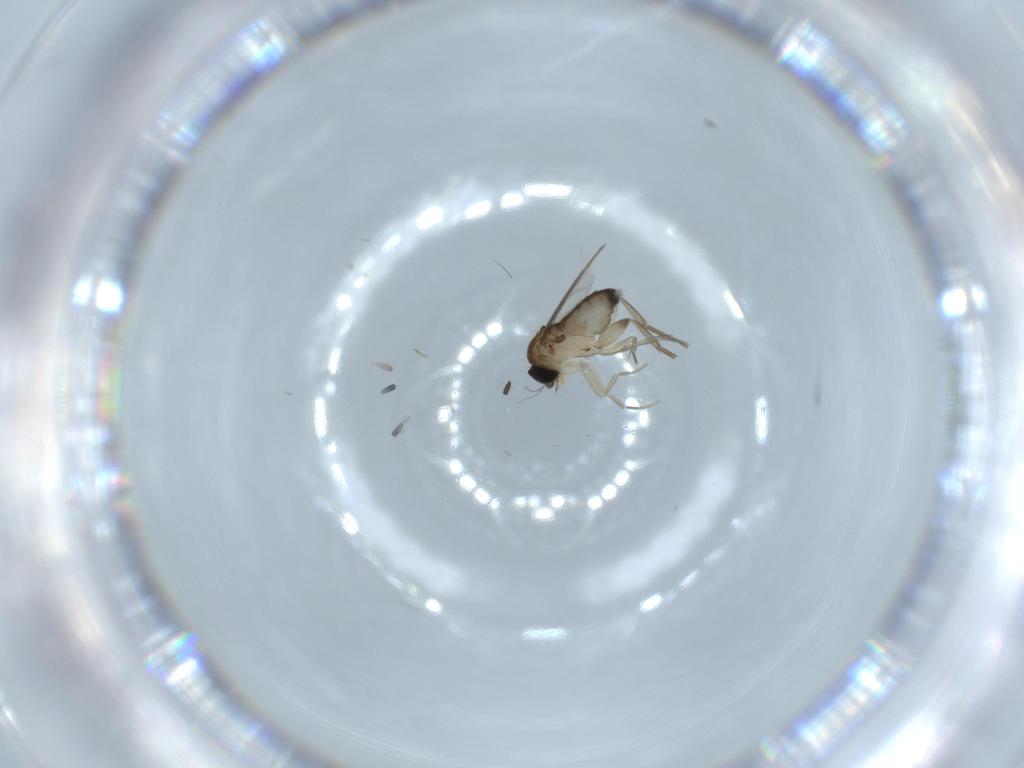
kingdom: Animalia
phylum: Arthropoda
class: Insecta
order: Diptera
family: Phoridae
